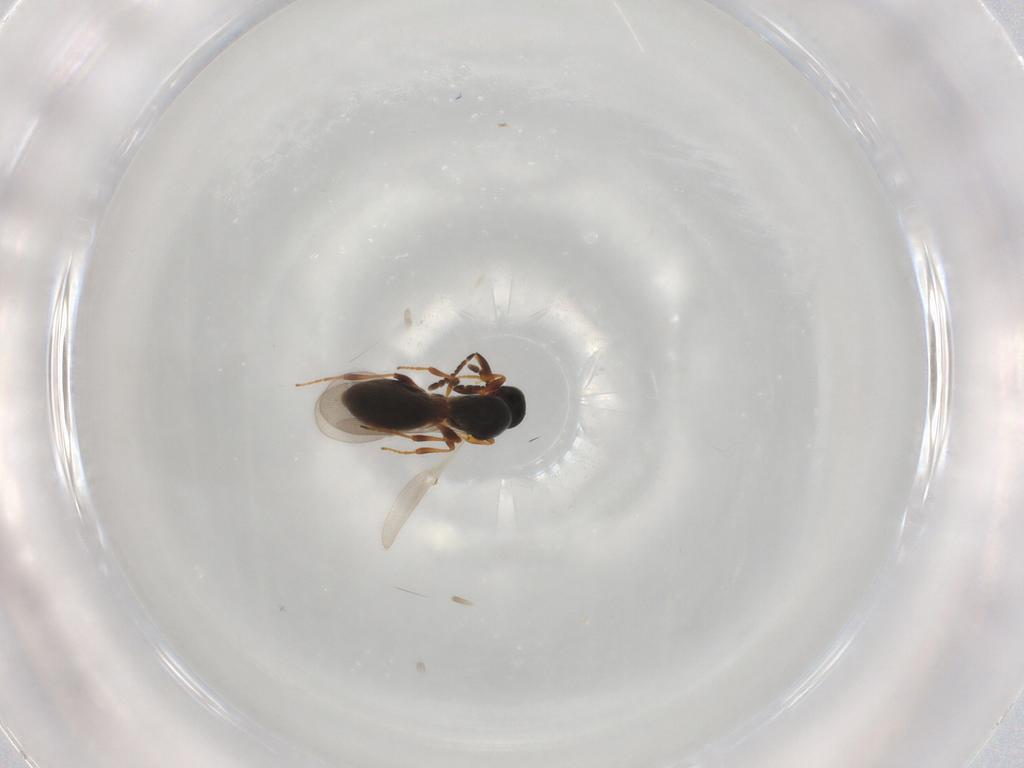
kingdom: Animalia
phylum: Arthropoda
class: Insecta
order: Hymenoptera
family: Platygastridae
